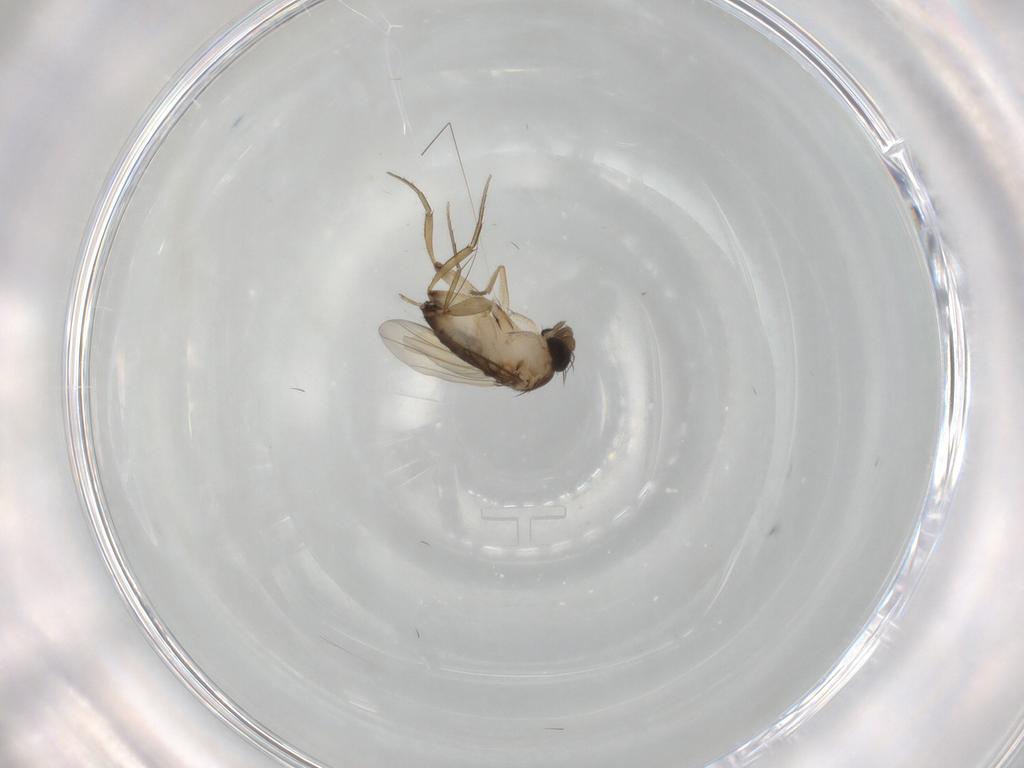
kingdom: Animalia
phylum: Arthropoda
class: Insecta
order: Diptera
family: Phoridae
